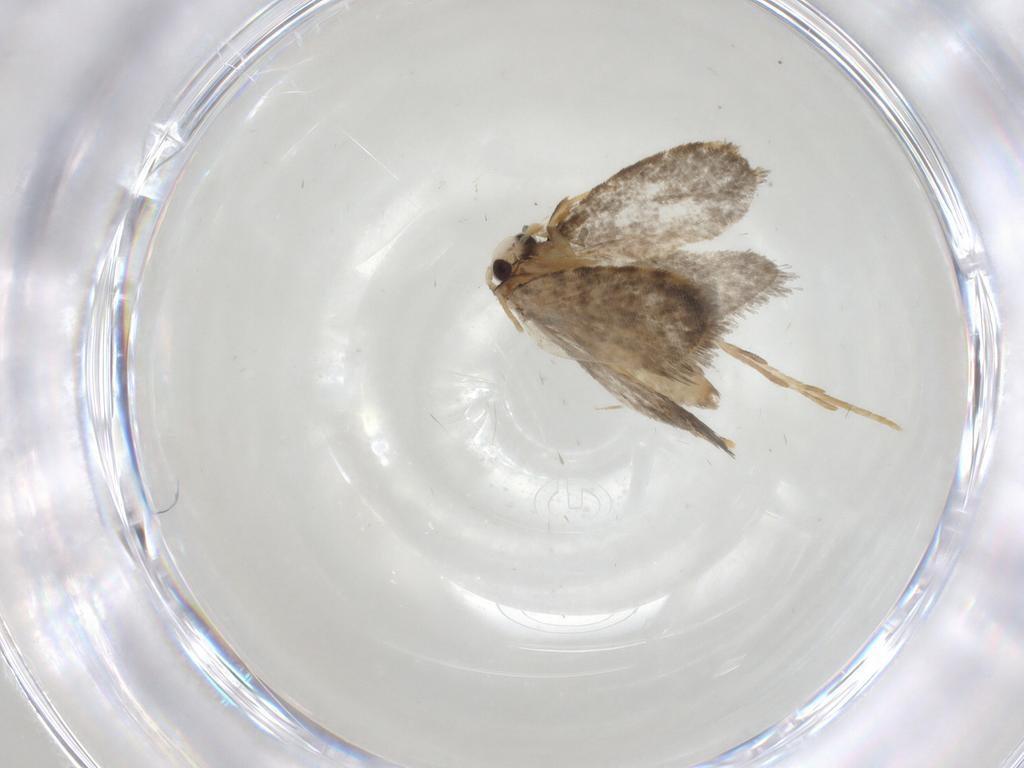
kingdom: Animalia
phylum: Arthropoda
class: Insecta
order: Lepidoptera
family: Psychidae
